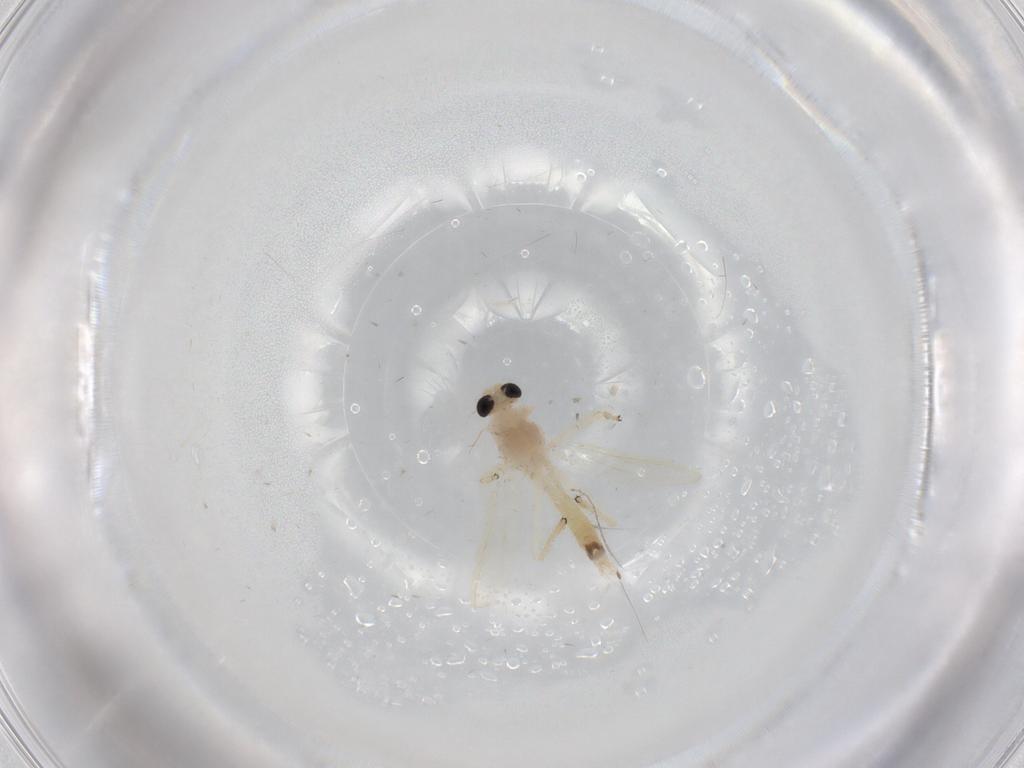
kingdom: Animalia
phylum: Arthropoda
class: Insecta
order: Diptera
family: Chironomidae
